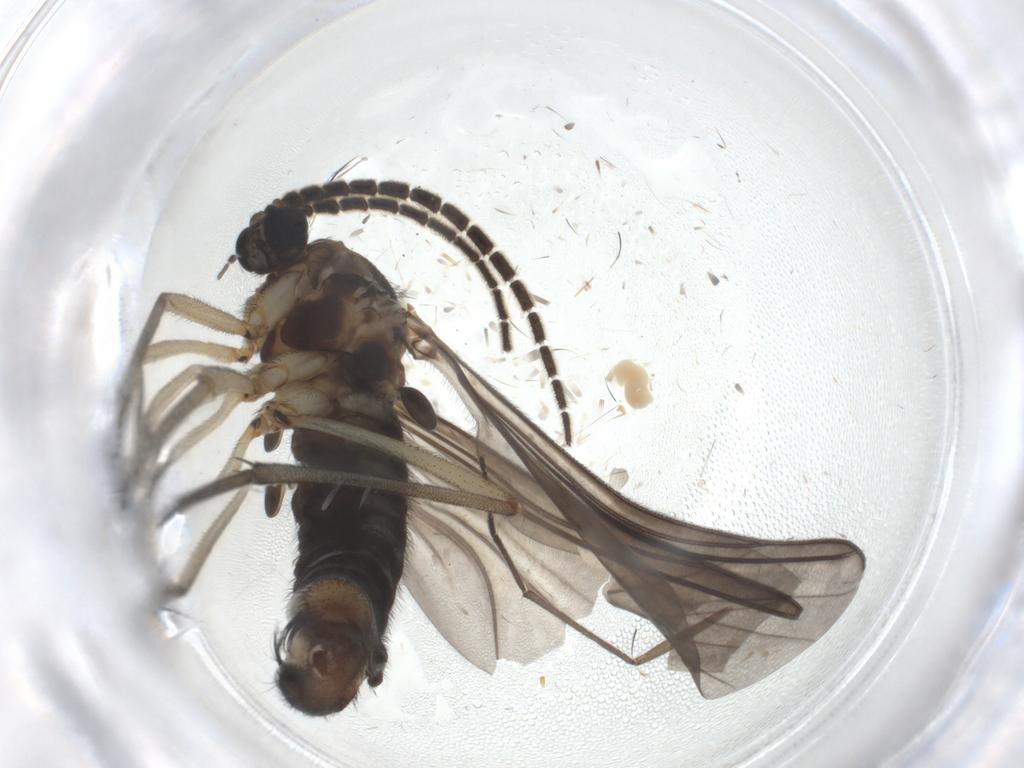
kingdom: Animalia
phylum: Arthropoda
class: Insecta
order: Diptera
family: Sciaridae
